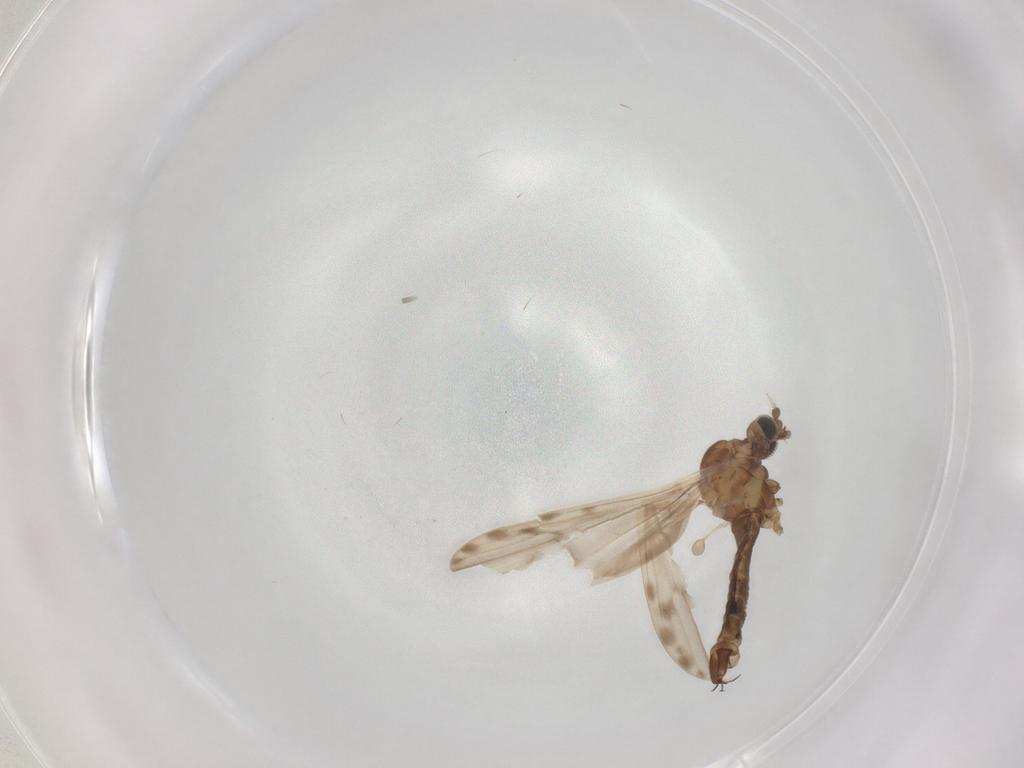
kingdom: Animalia
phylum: Arthropoda
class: Insecta
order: Diptera
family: Limoniidae
